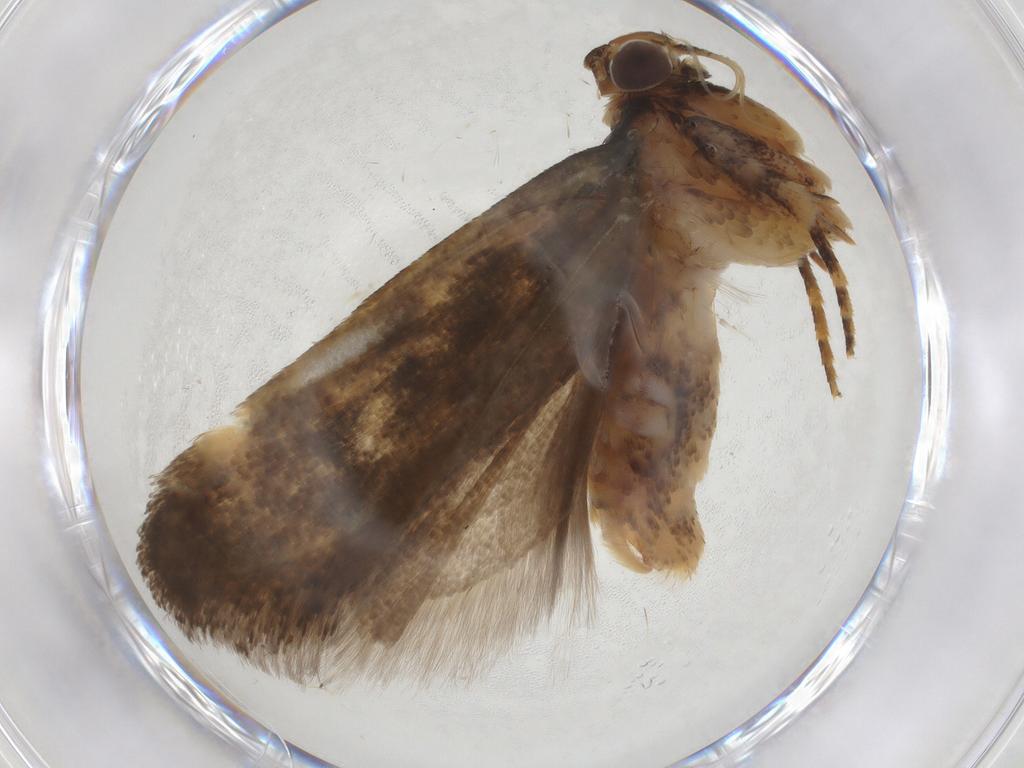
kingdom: Animalia
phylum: Arthropoda
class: Insecta
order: Lepidoptera
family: Gelechiidae
